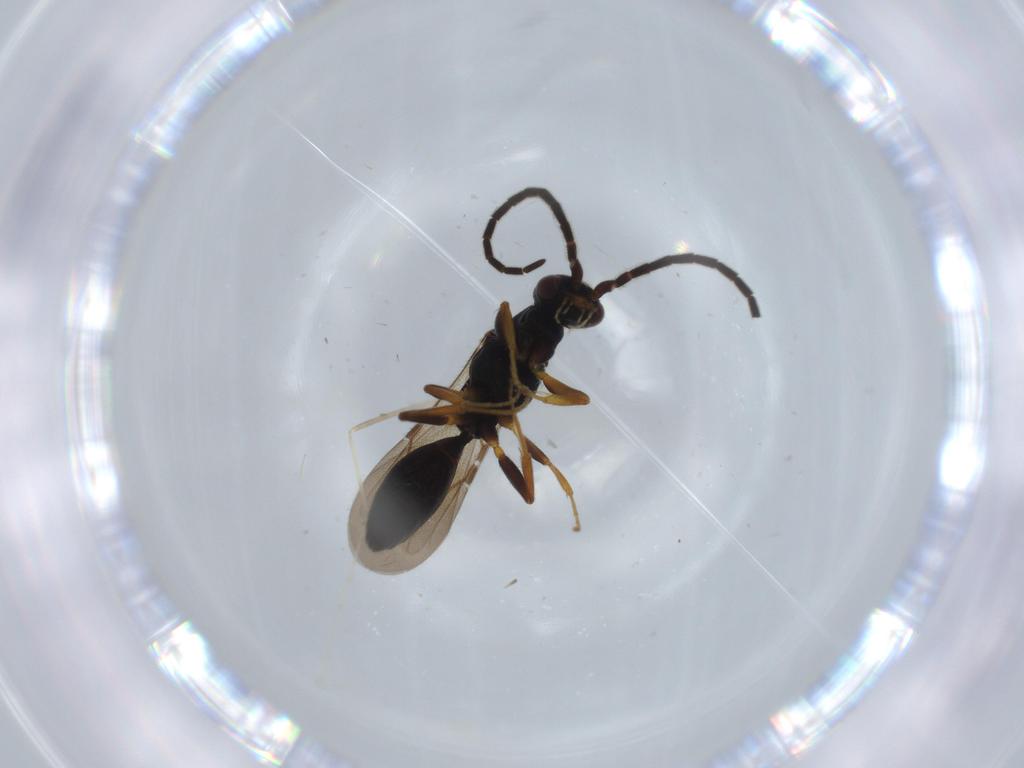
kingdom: Animalia
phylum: Arthropoda
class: Insecta
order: Hymenoptera
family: Bethylidae
